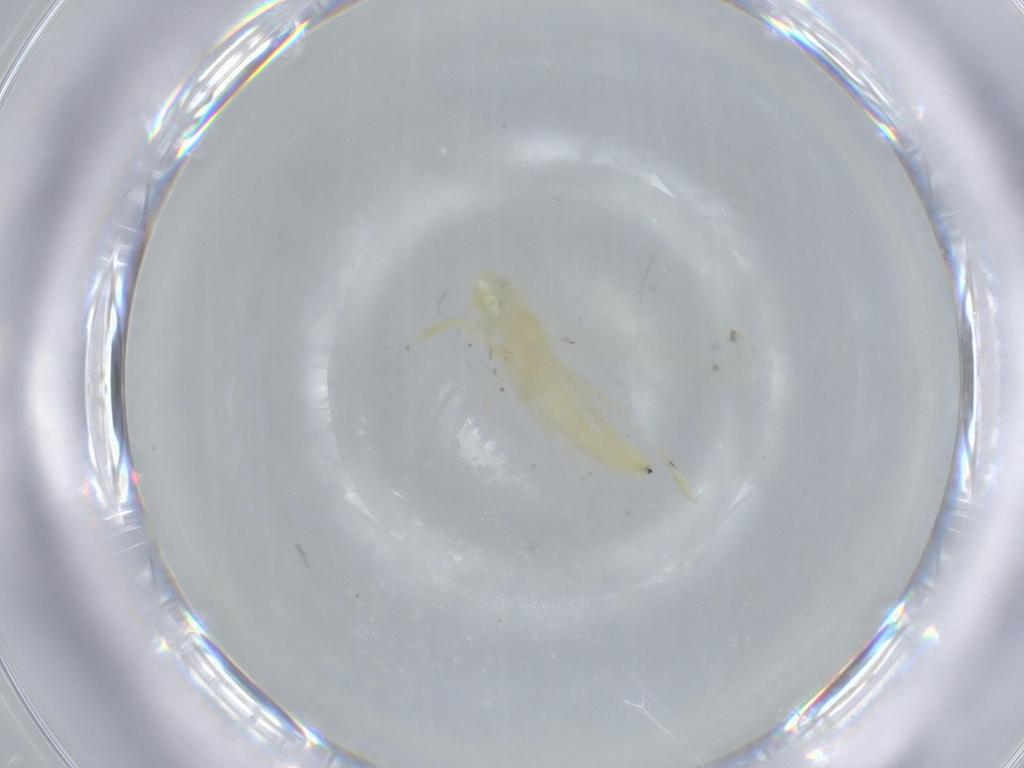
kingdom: Animalia
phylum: Arthropoda
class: Insecta
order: Hemiptera
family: Cicadellidae
